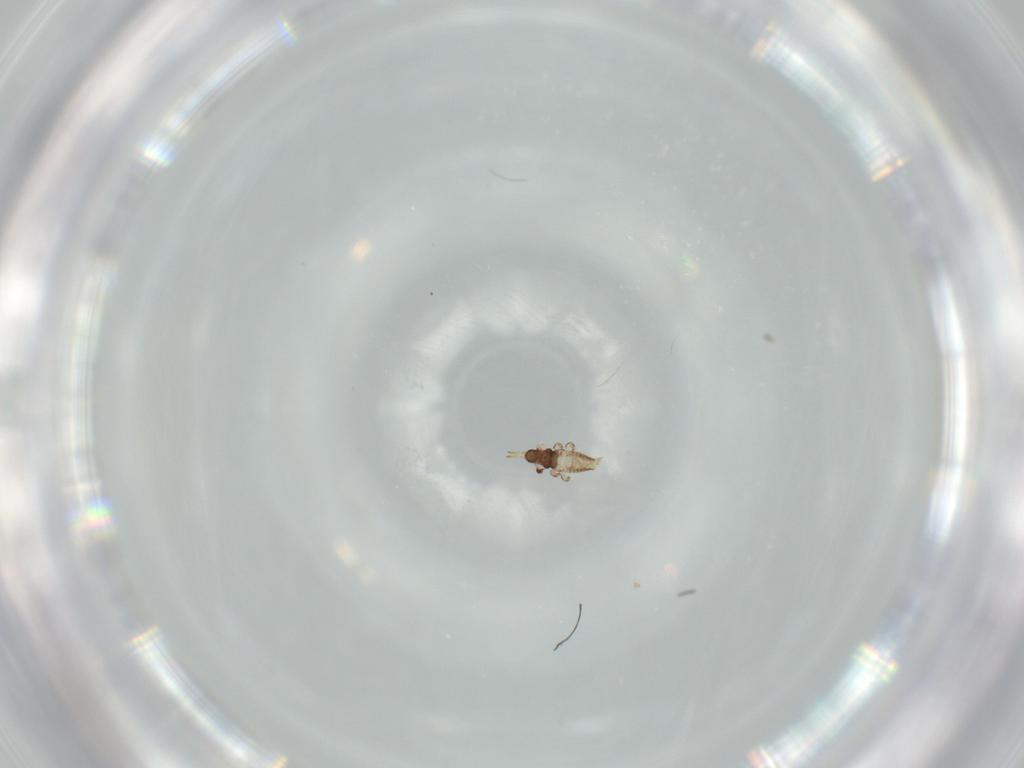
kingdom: Animalia
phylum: Arthropoda
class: Insecta
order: Thysanoptera
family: Phlaeothripidae
